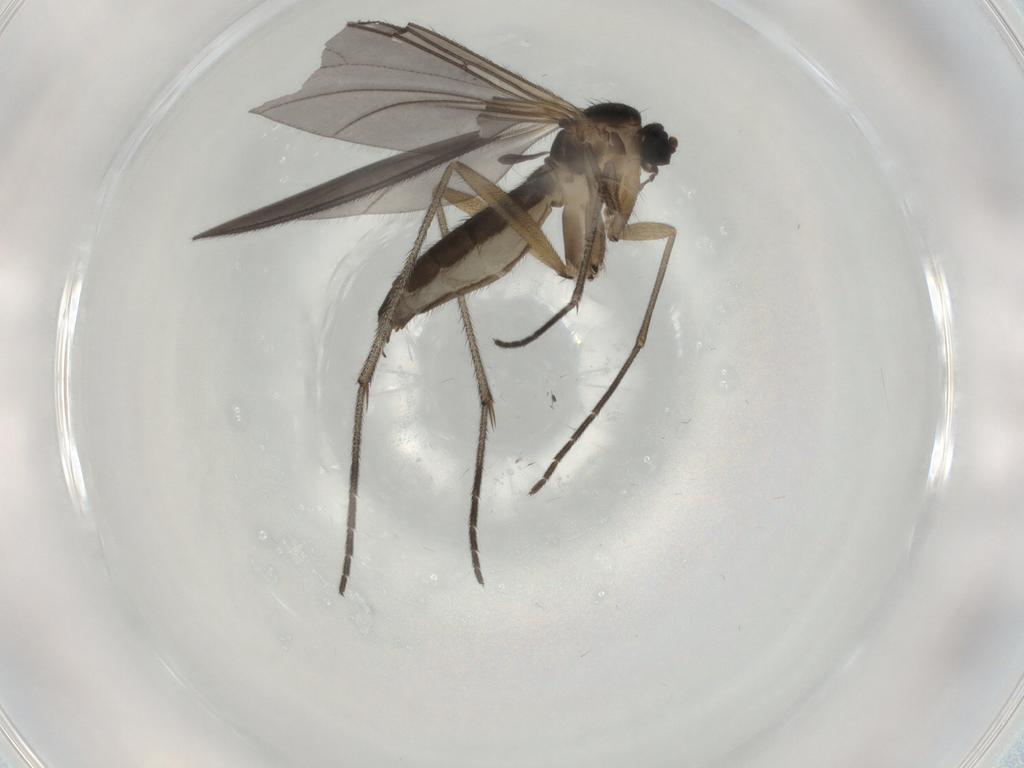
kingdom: Animalia
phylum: Arthropoda
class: Insecta
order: Diptera
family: Sciaridae
